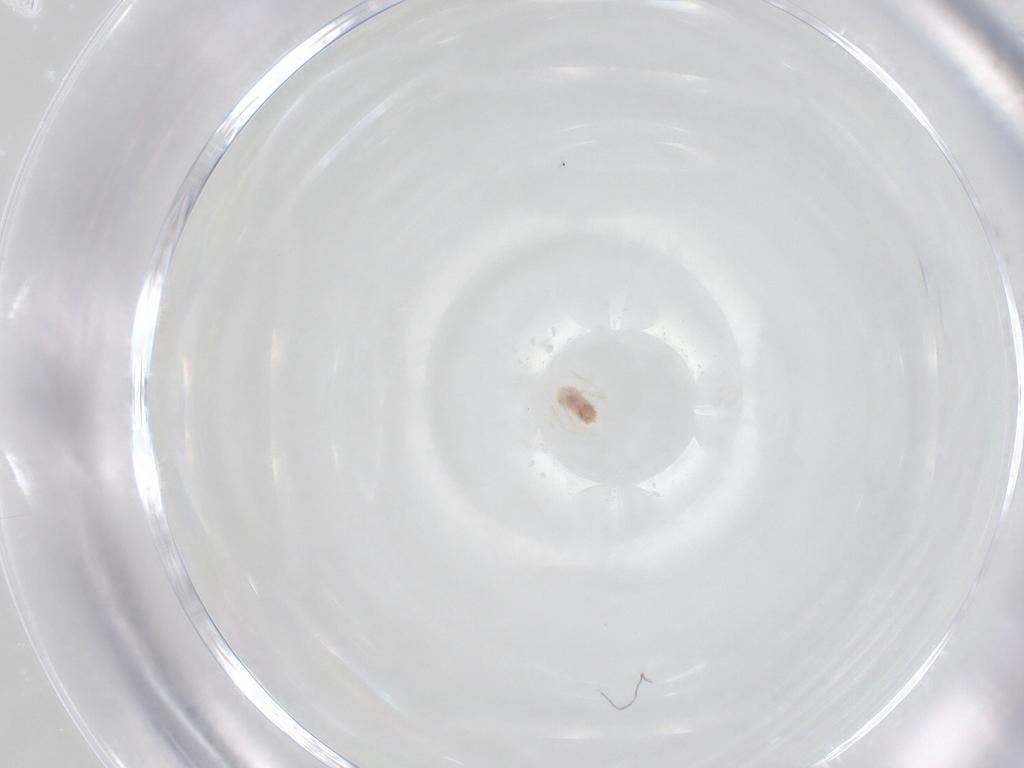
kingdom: Animalia
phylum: Arthropoda
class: Arachnida
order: Trombidiformes
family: Anystidae
